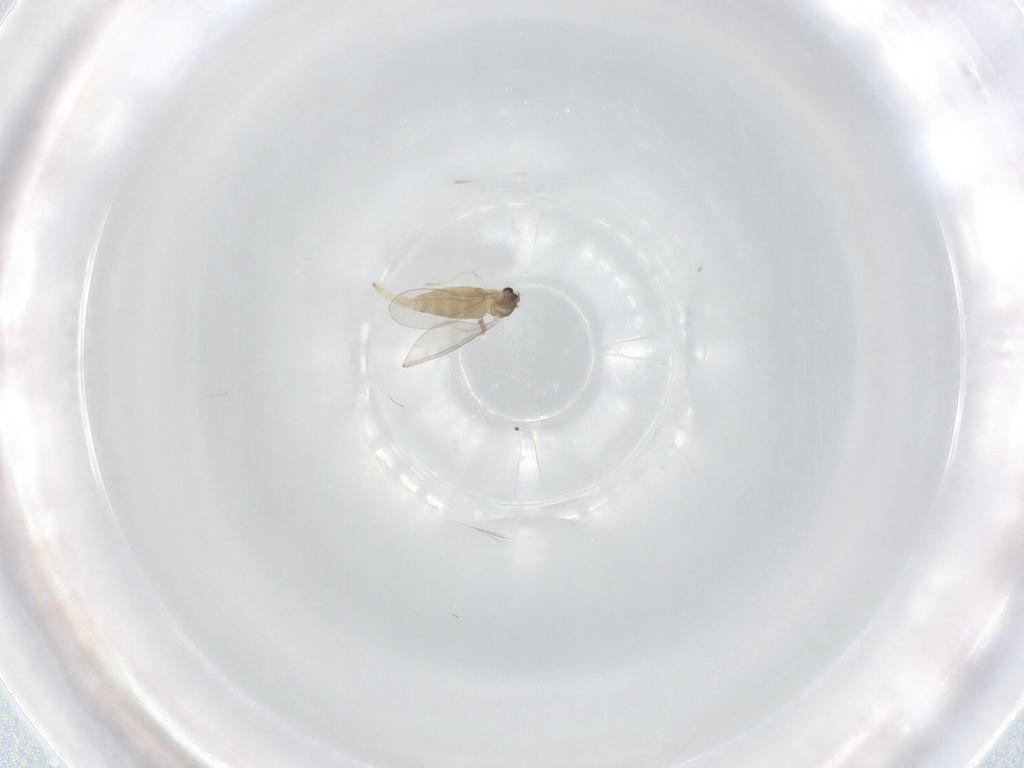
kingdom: Animalia
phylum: Arthropoda
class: Insecta
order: Diptera
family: Cecidomyiidae
